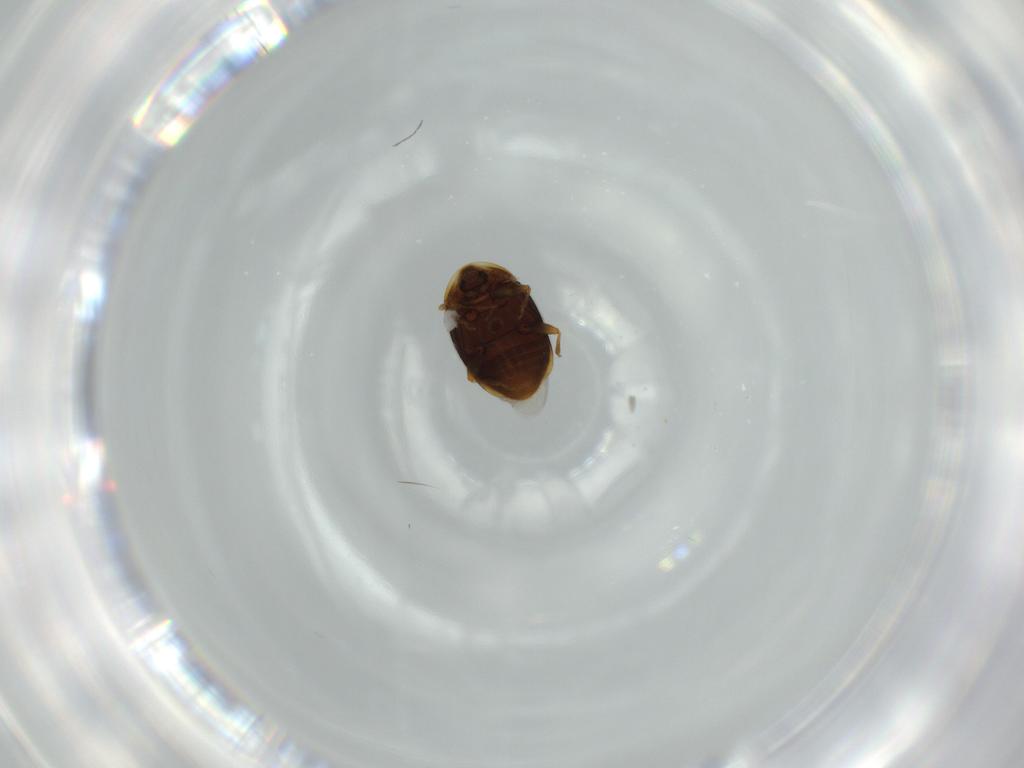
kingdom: Animalia
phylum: Arthropoda
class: Insecta
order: Coleoptera
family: Corylophidae
